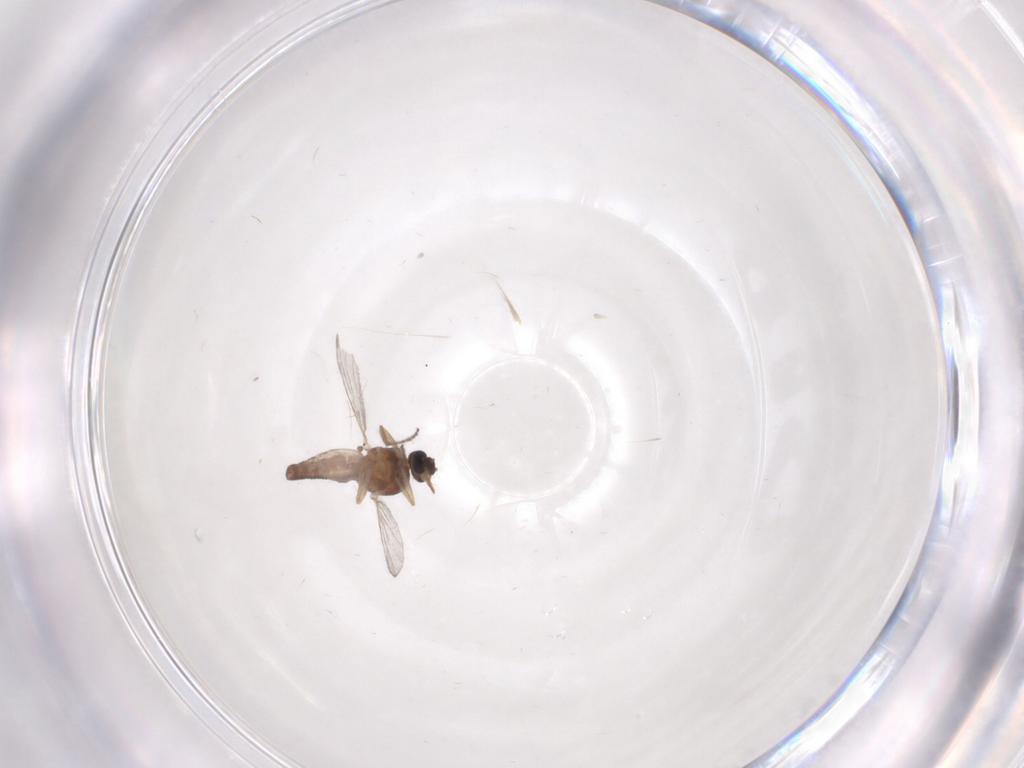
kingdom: Animalia
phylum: Arthropoda
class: Insecta
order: Diptera
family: Ceratopogonidae
